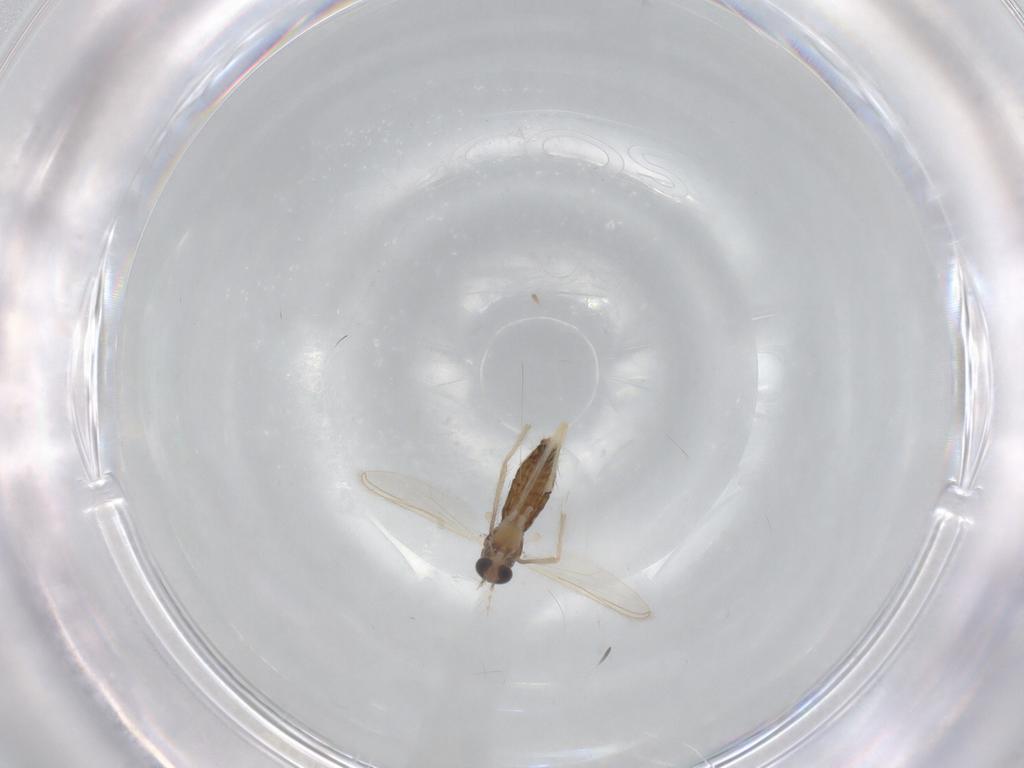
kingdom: Animalia
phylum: Arthropoda
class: Insecta
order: Diptera
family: Chironomidae
